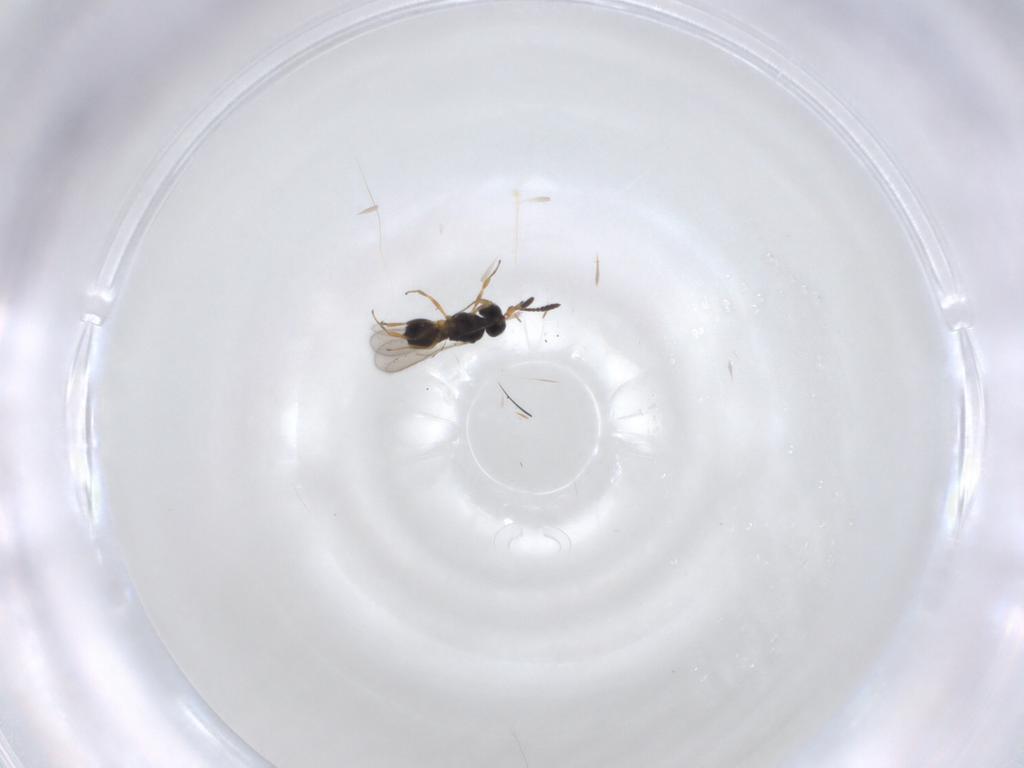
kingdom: Animalia
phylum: Arthropoda
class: Insecta
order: Hymenoptera
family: Scelionidae
